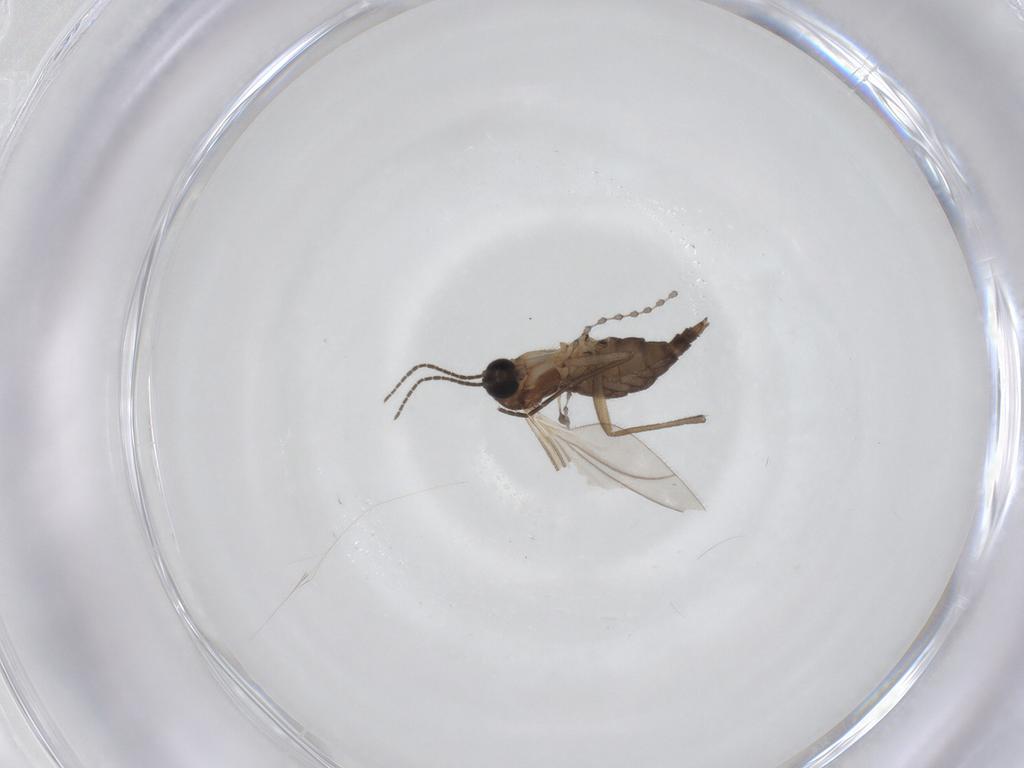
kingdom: Animalia
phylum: Arthropoda
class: Insecta
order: Diptera
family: Sciaridae
